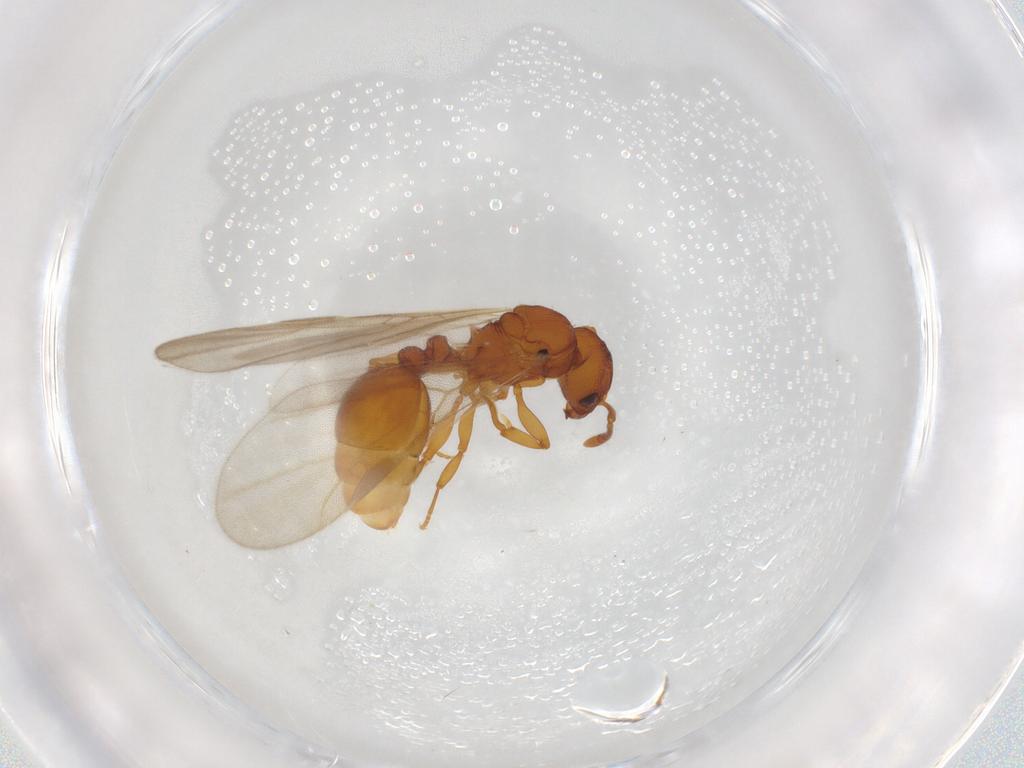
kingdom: Animalia
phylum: Arthropoda
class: Insecta
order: Hymenoptera
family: Formicidae
